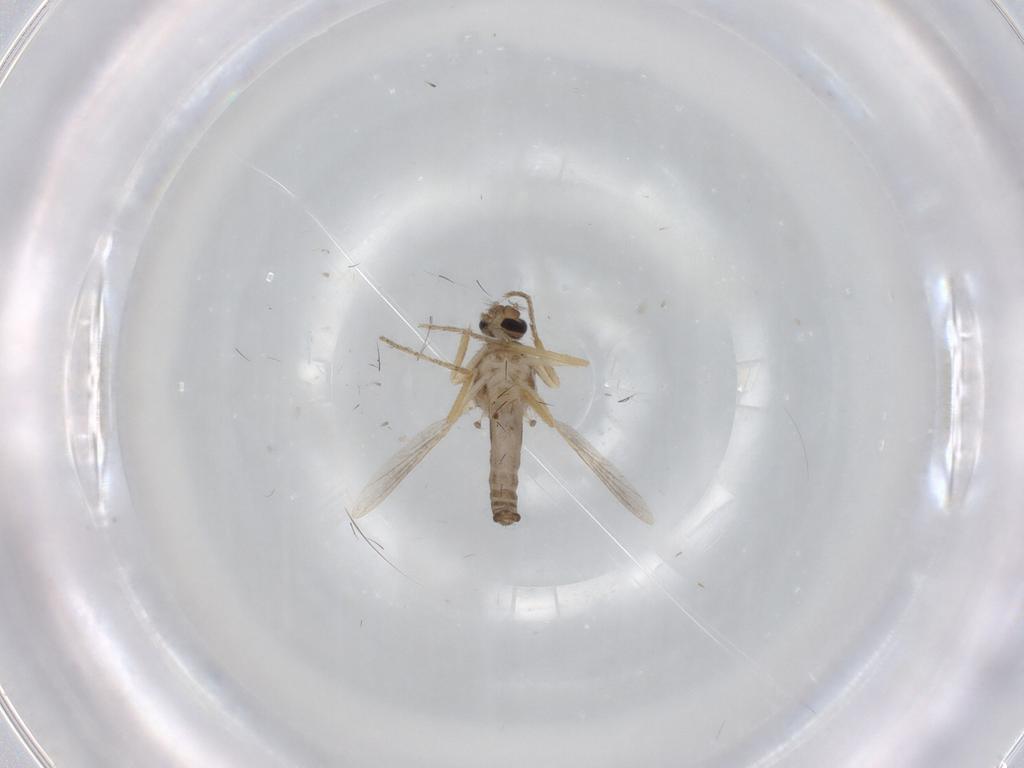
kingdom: Animalia
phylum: Arthropoda
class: Insecta
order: Diptera
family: Ceratopogonidae
